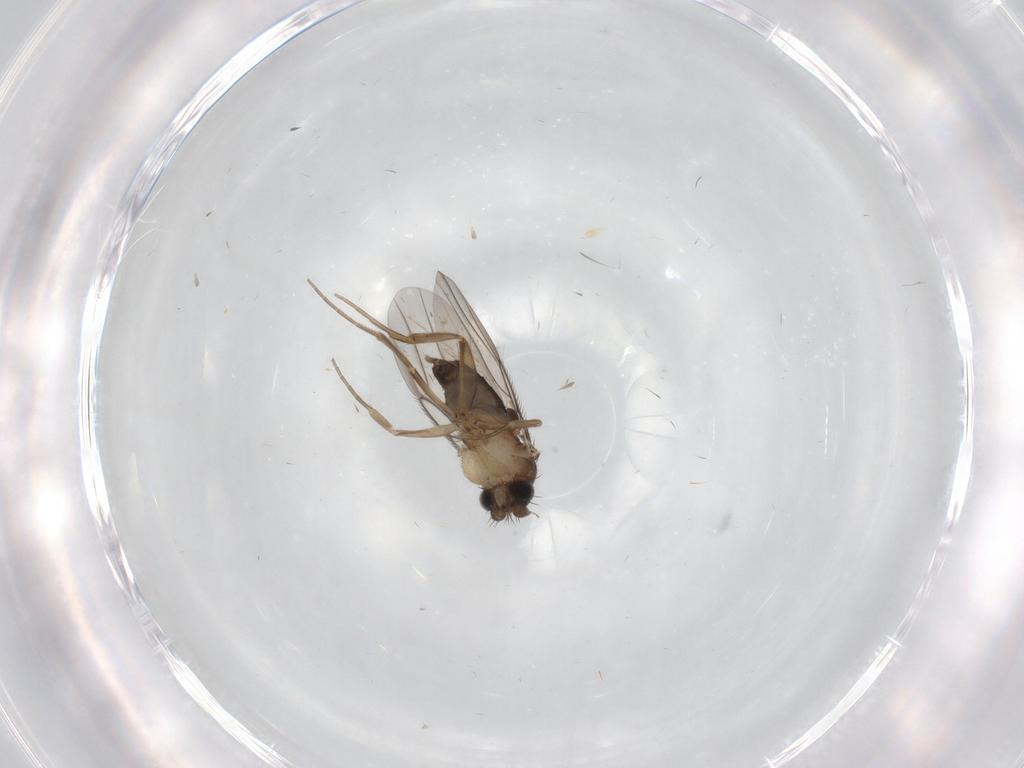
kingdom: Animalia
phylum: Arthropoda
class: Insecta
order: Diptera
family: Phoridae
